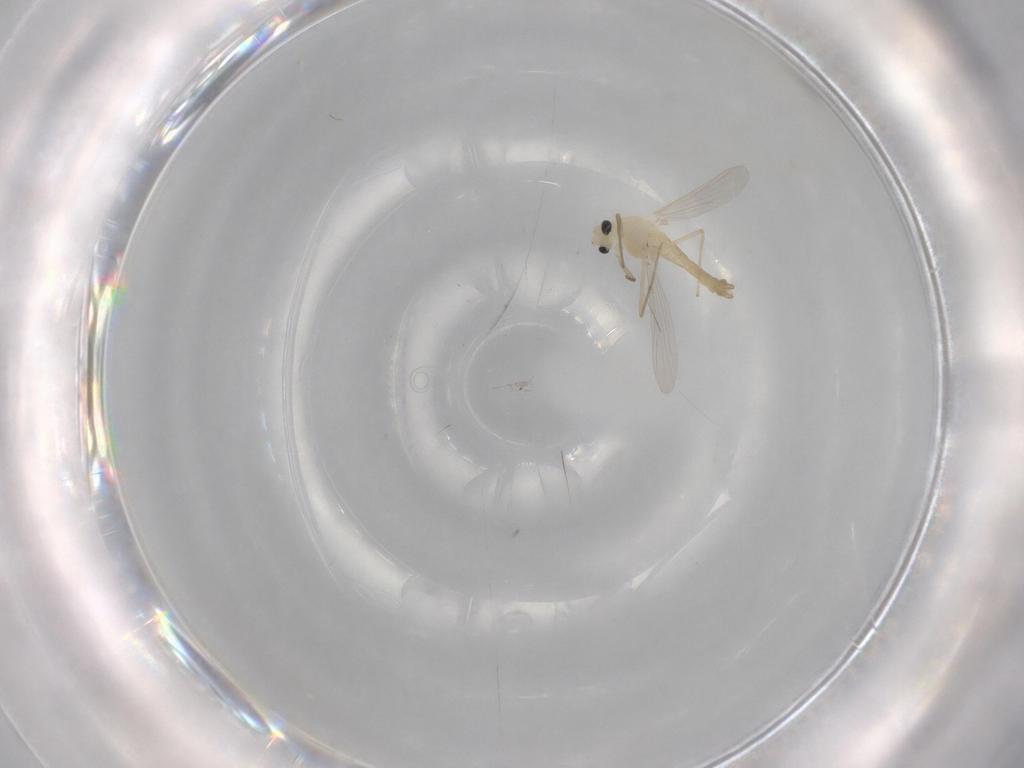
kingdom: Animalia
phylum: Arthropoda
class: Insecta
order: Diptera
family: Chironomidae
